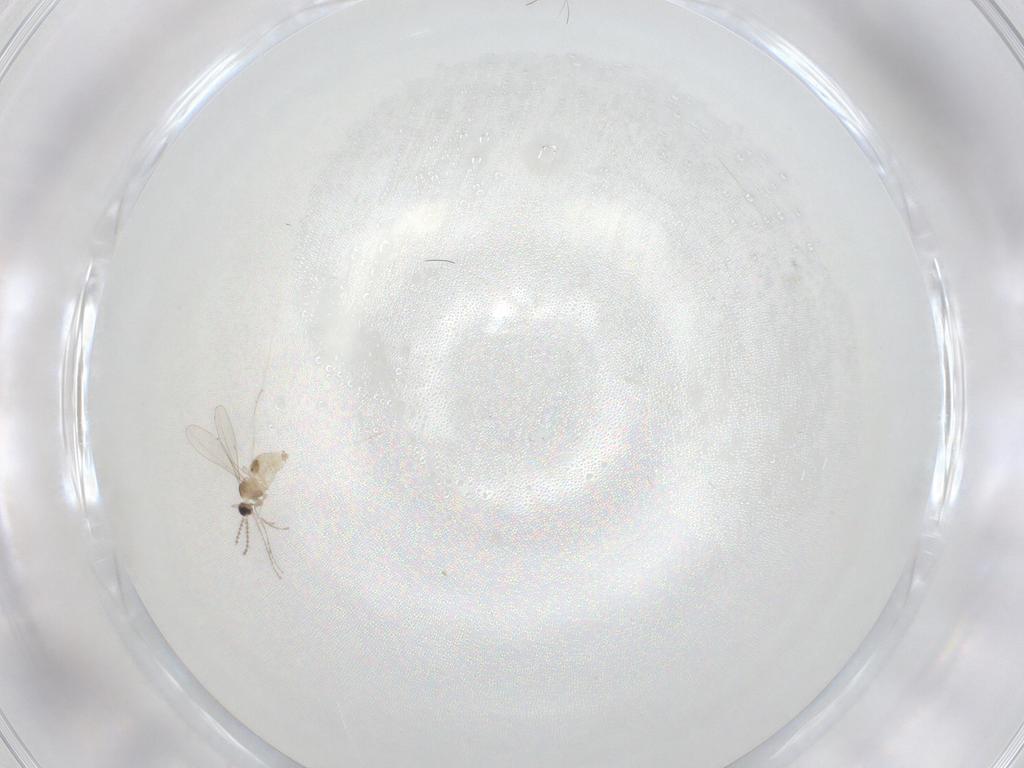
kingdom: Animalia
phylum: Arthropoda
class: Insecta
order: Diptera
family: Cecidomyiidae
